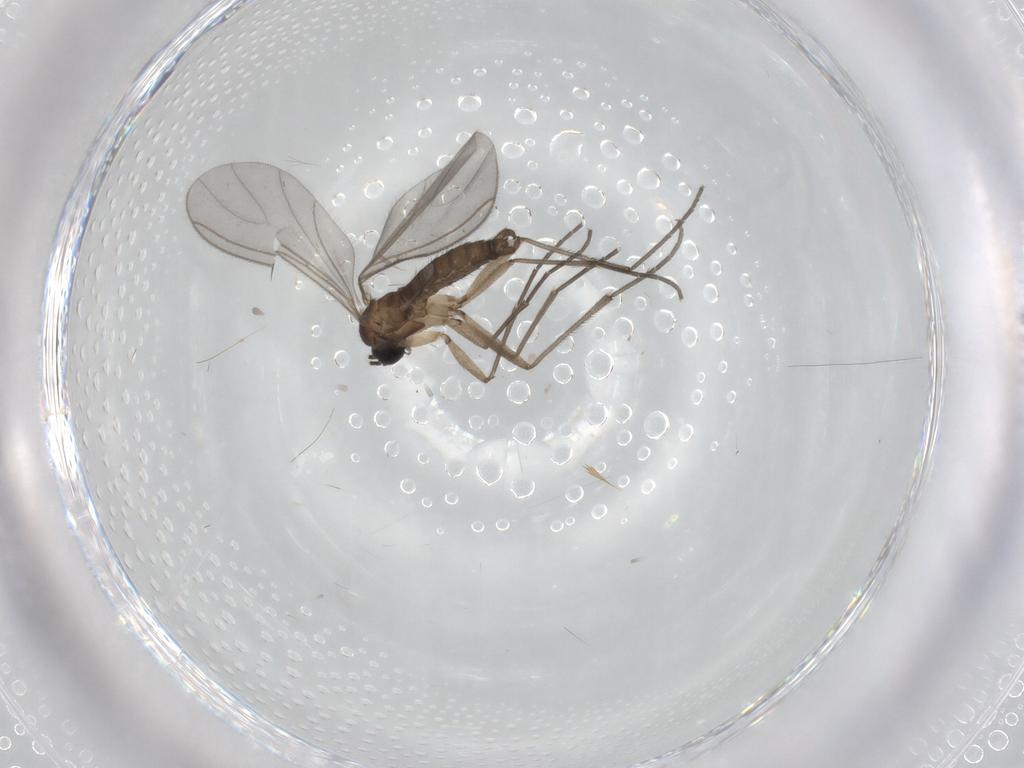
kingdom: Animalia
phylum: Arthropoda
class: Insecta
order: Diptera
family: Sciaridae
